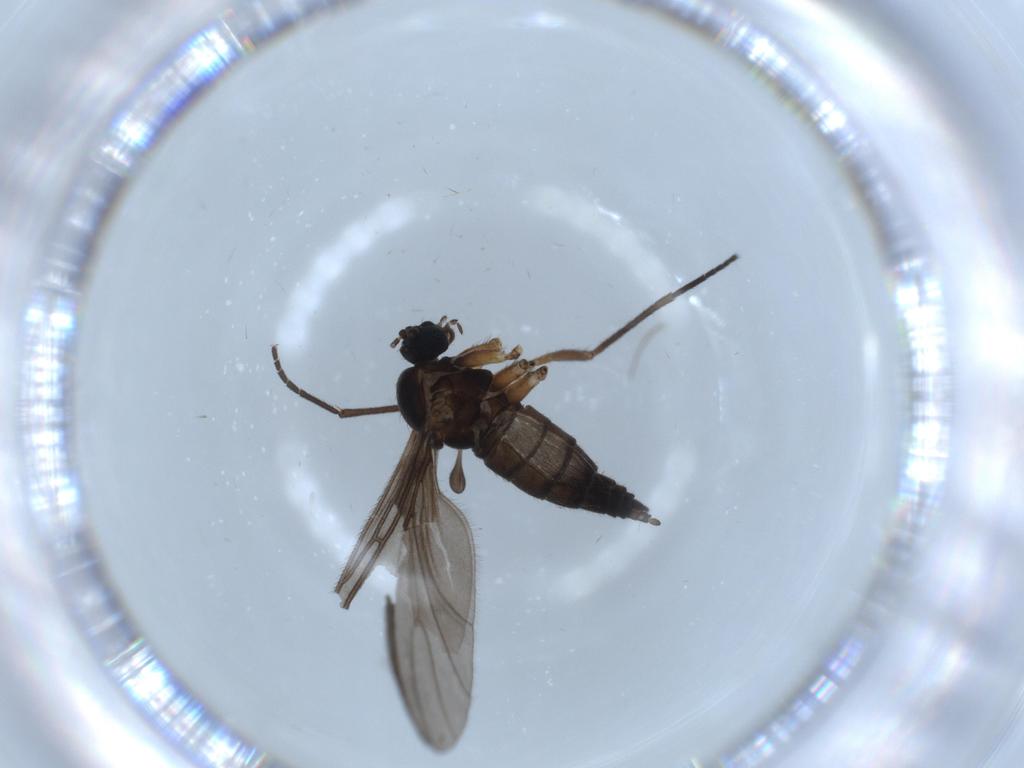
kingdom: Animalia
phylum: Arthropoda
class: Insecta
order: Diptera
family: Sciaridae
